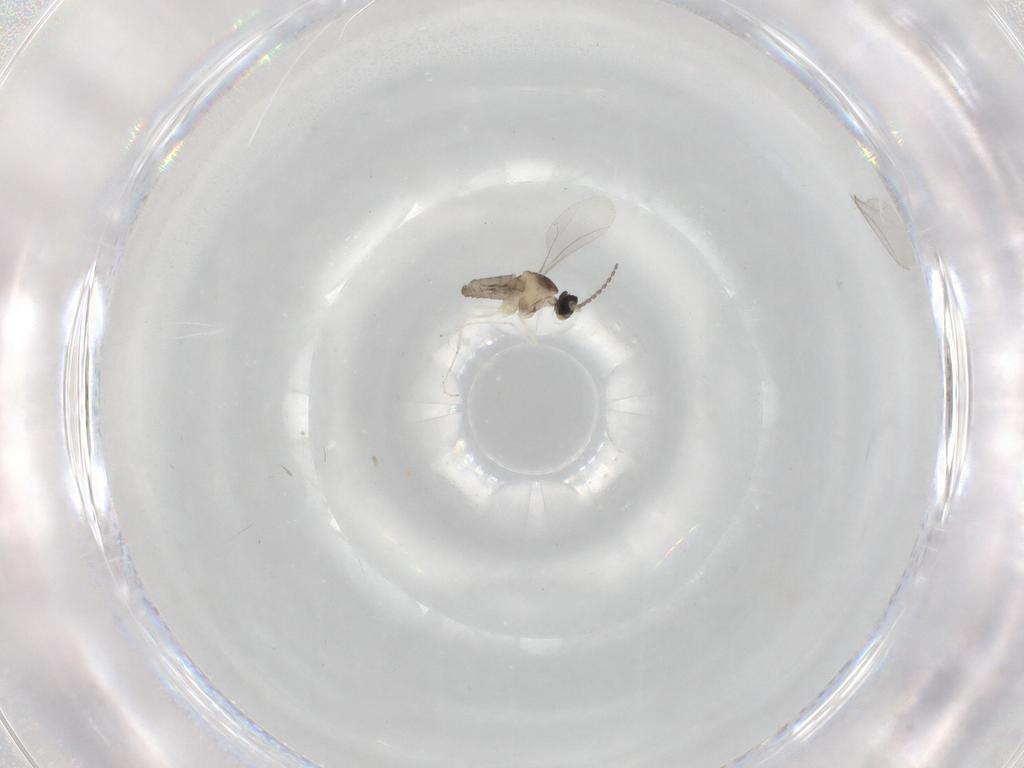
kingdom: Animalia
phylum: Arthropoda
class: Insecta
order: Diptera
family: Cecidomyiidae
